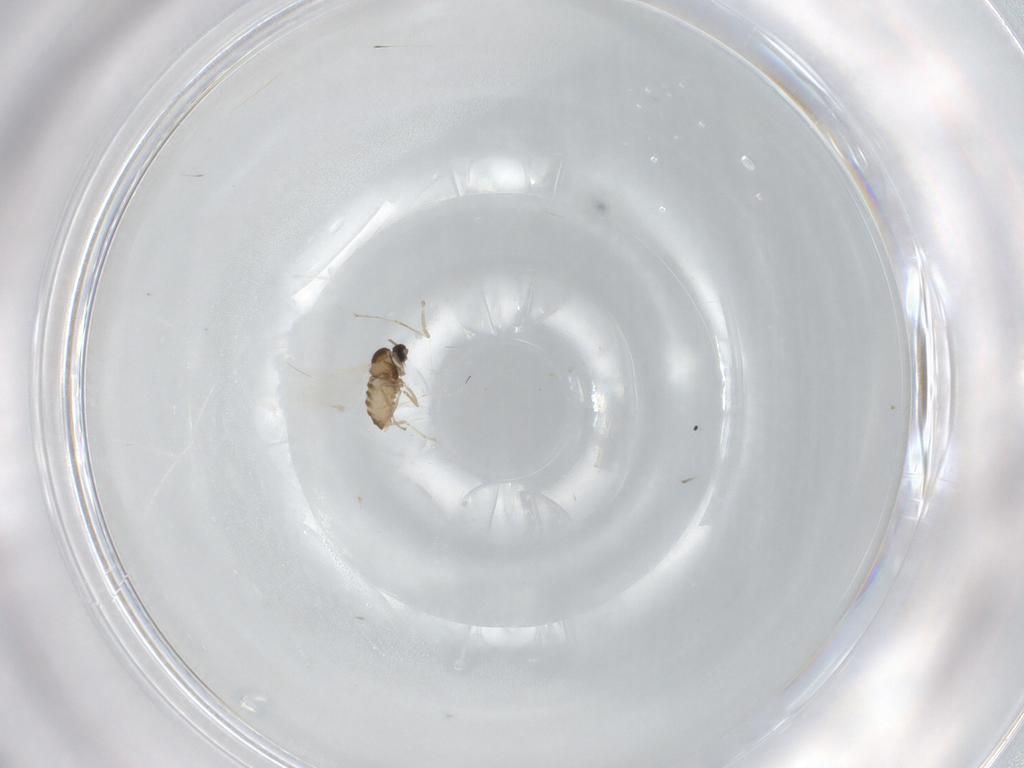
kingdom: Animalia
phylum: Arthropoda
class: Insecta
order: Diptera
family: Cecidomyiidae
